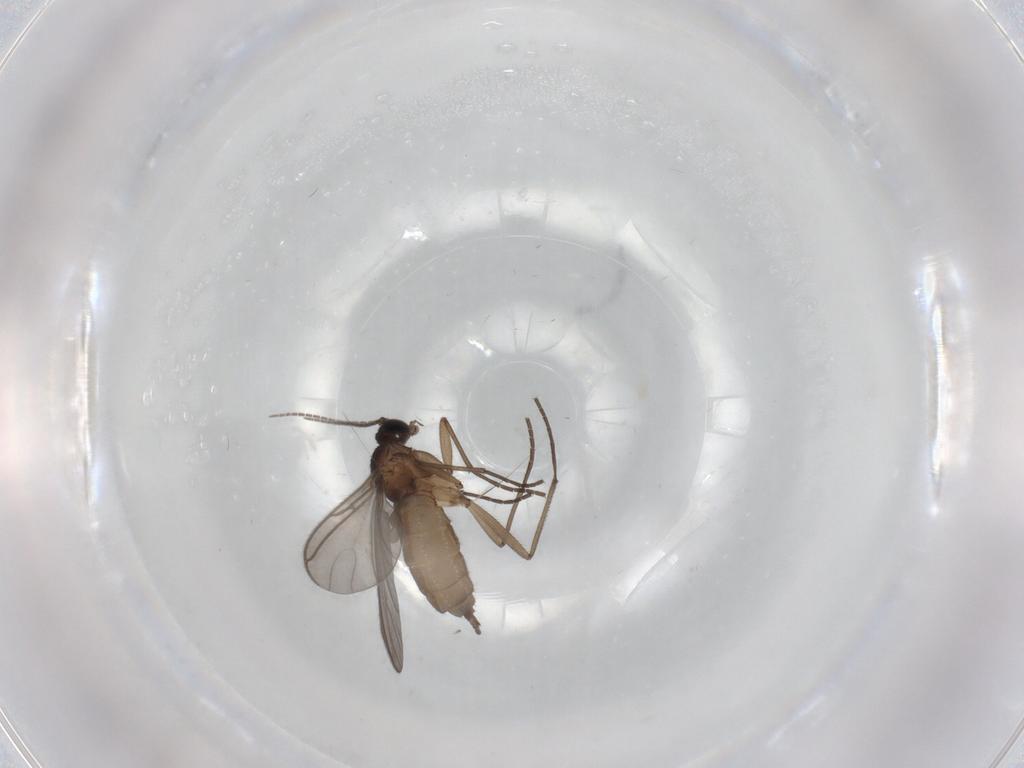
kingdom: Animalia
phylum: Arthropoda
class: Insecta
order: Diptera
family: Sciaridae
